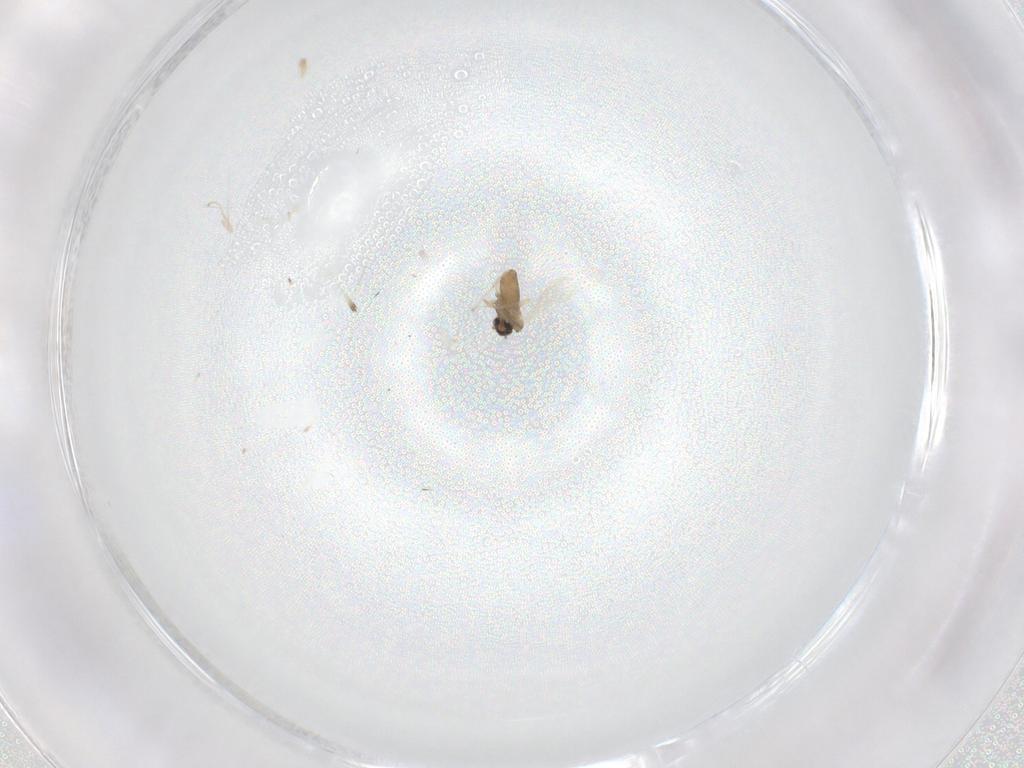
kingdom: Animalia
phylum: Arthropoda
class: Insecta
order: Diptera
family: Cecidomyiidae
